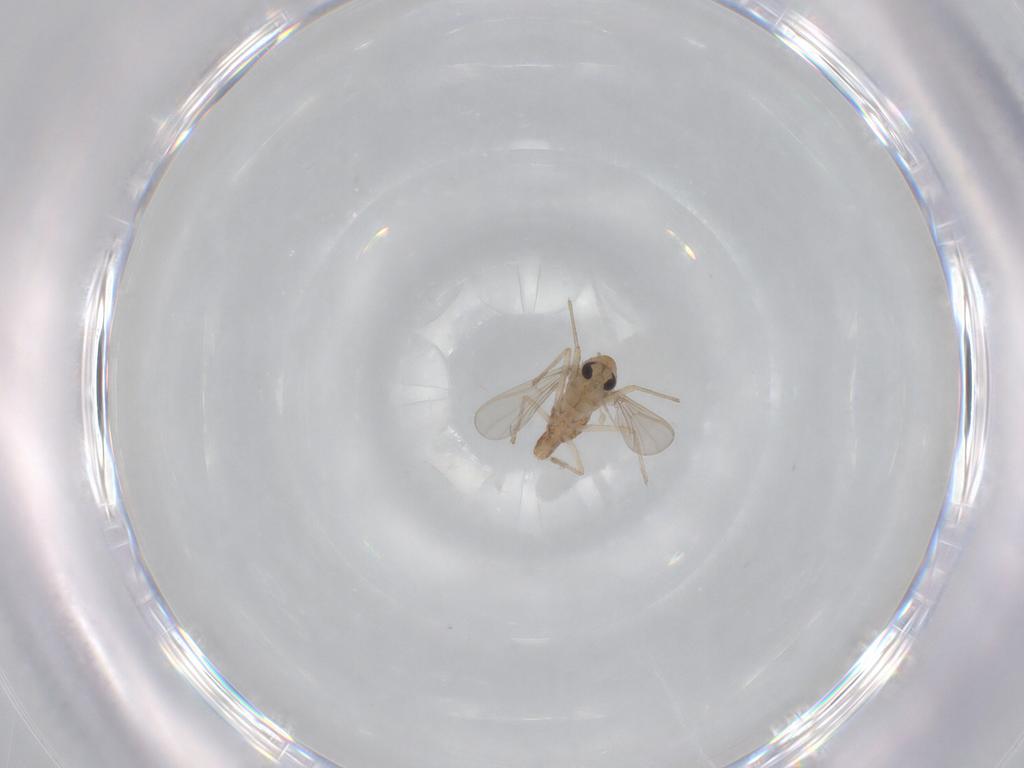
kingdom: Animalia
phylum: Arthropoda
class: Insecta
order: Diptera
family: Chironomidae
